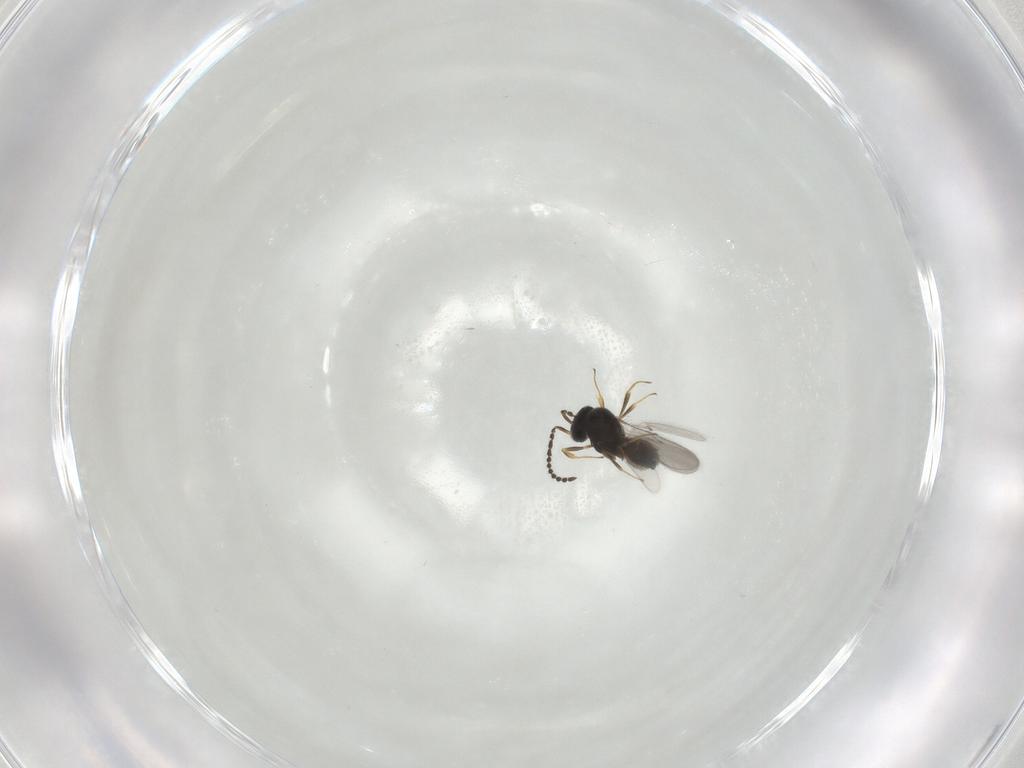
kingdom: Animalia
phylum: Arthropoda
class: Insecta
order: Hymenoptera
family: Scelionidae
